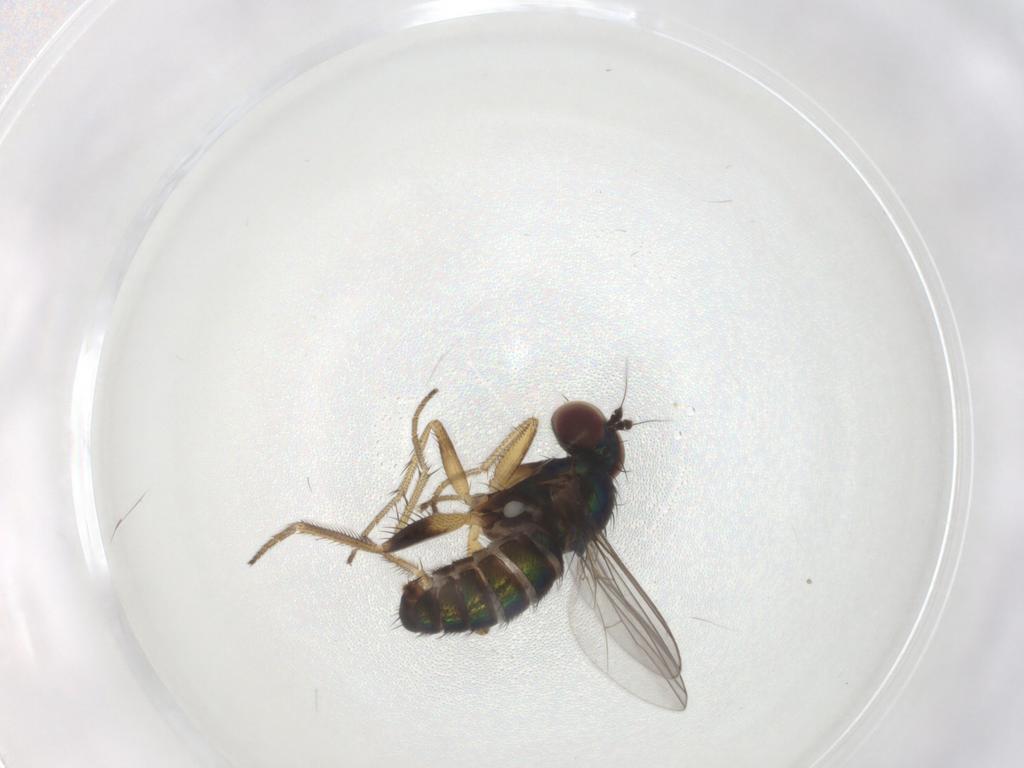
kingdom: Animalia
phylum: Arthropoda
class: Insecta
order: Diptera
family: Dolichopodidae
